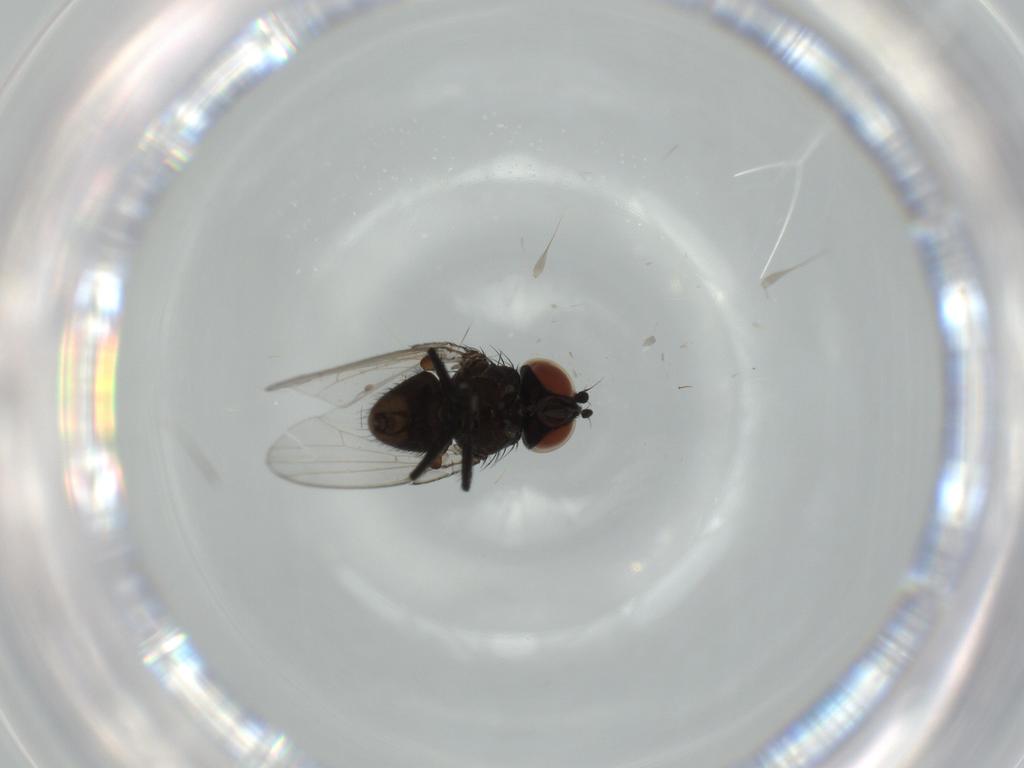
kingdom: Animalia
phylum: Arthropoda
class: Insecta
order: Diptera
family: Milichiidae
